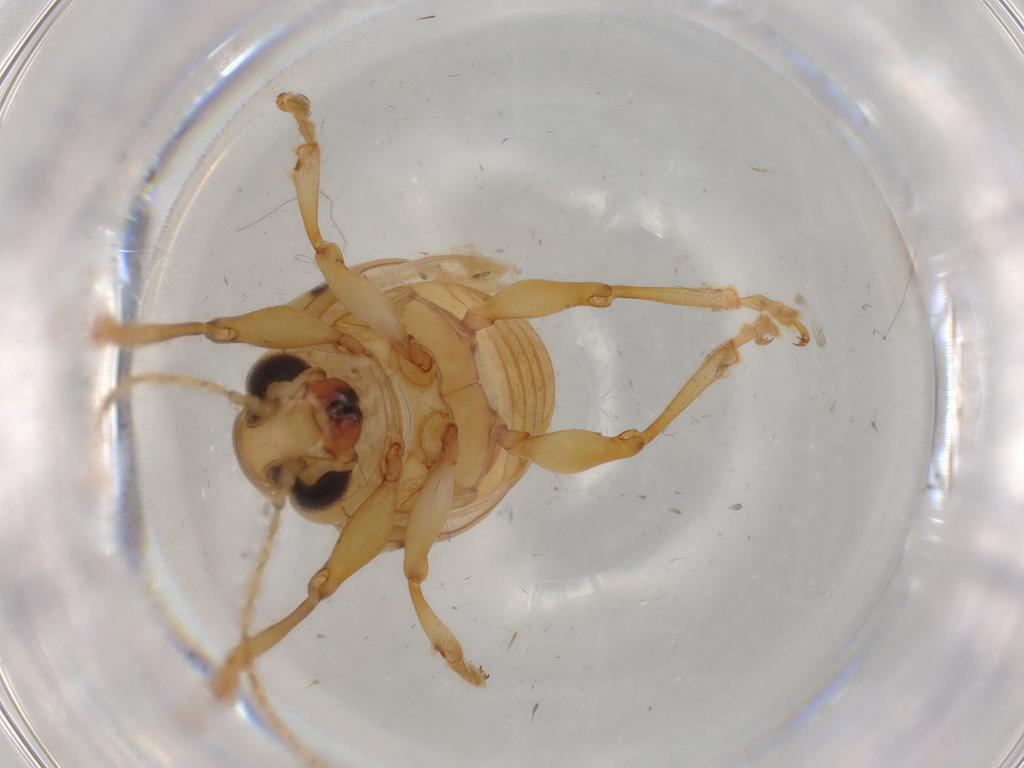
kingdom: Animalia
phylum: Arthropoda
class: Insecta
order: Coleoptera
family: Chrysomelidae
